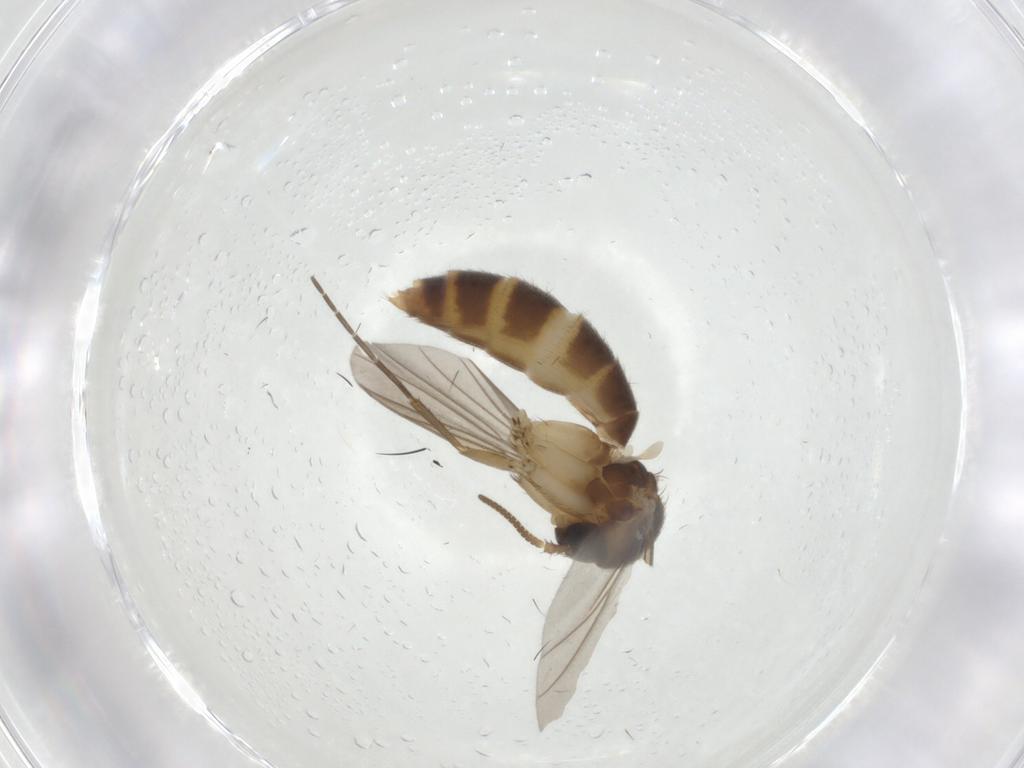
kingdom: Animalia
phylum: Arthropoda
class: Insecta
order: Diptera
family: Mycetophilidae
